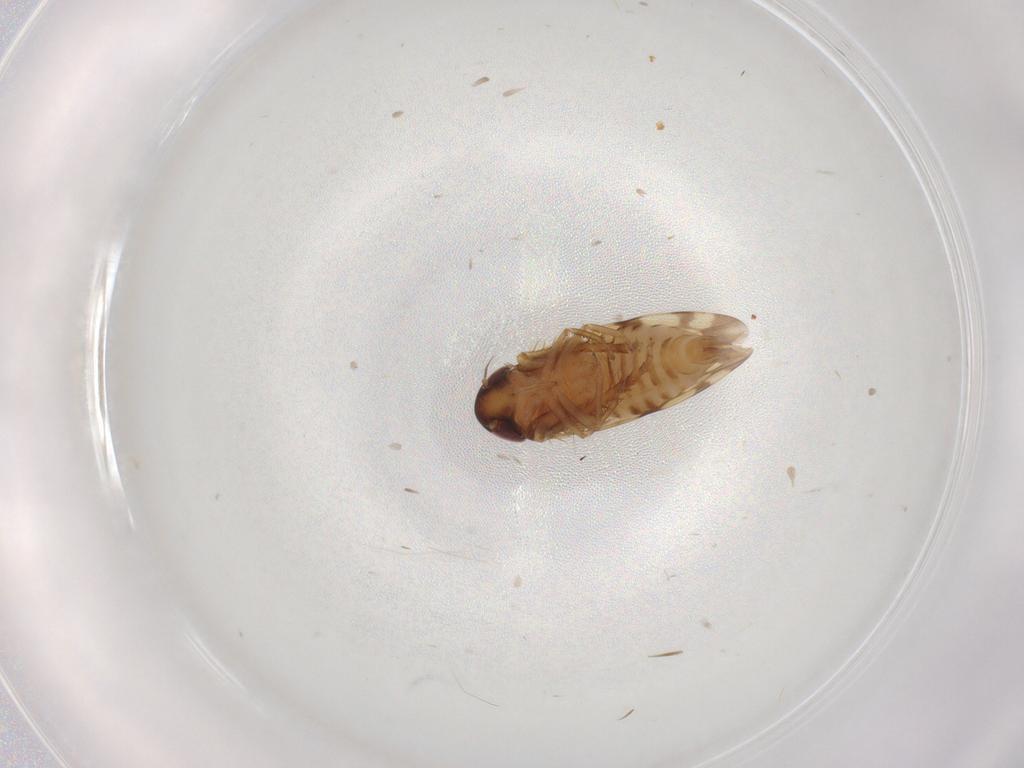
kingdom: Animalia
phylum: Arthropoda
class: Insecta
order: Hemiptera
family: Cicadellidae
